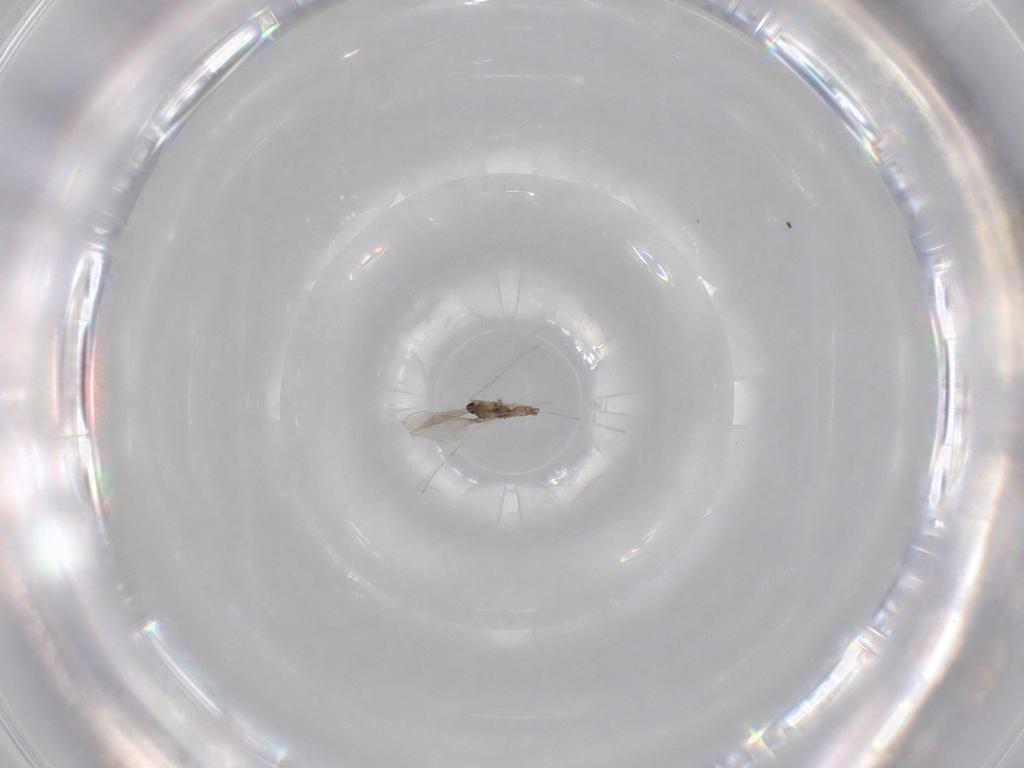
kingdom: Animalia
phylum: Arthropoda
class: Insecta
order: Diptera
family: Cecidomyiidae
